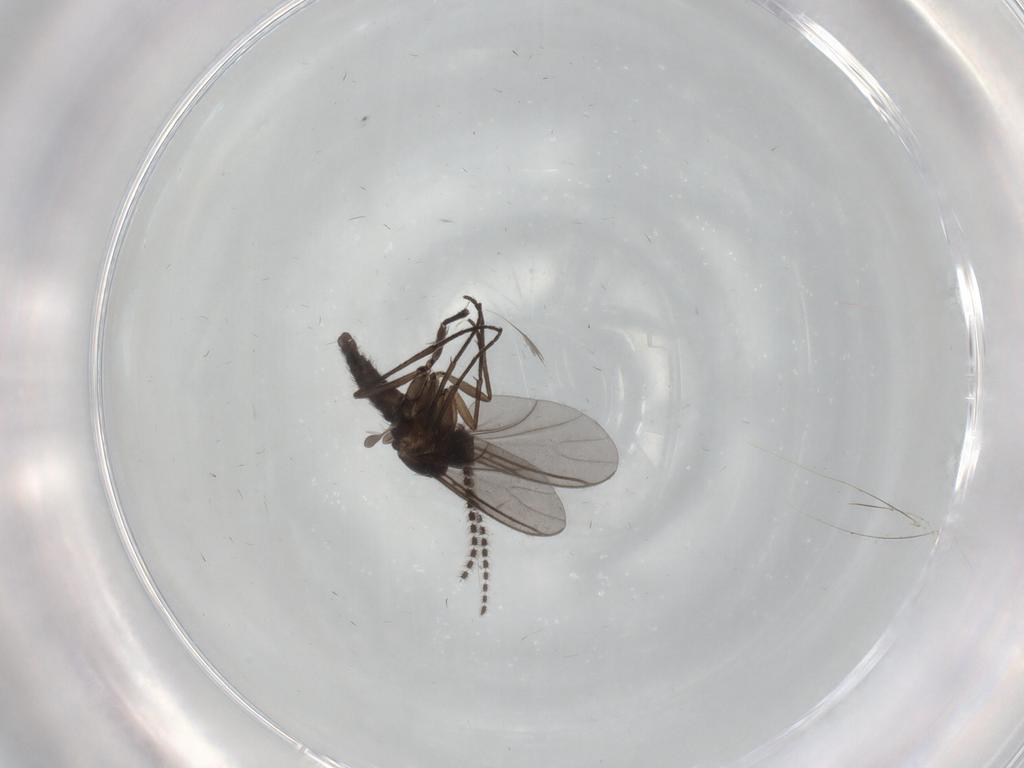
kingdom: Animalia
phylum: Arthropoda
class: Insecta
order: Diptera
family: Sciaridae
